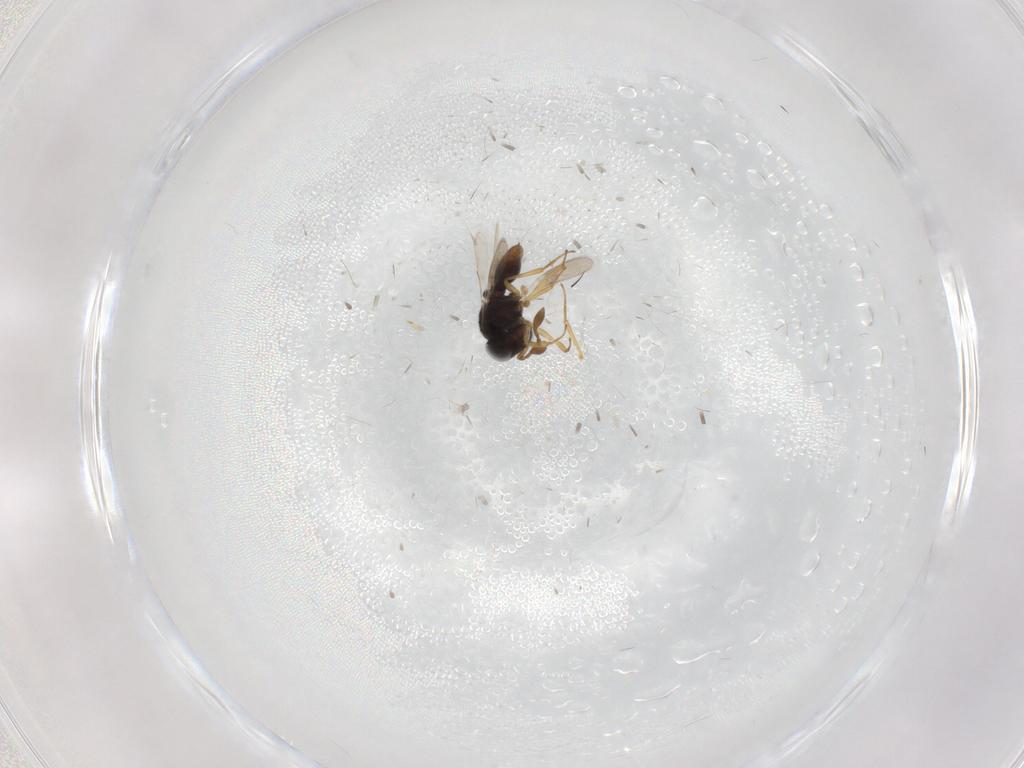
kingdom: Animalia
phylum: Arthropoda
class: Insecta
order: Hymenoptera
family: Scelionidae
